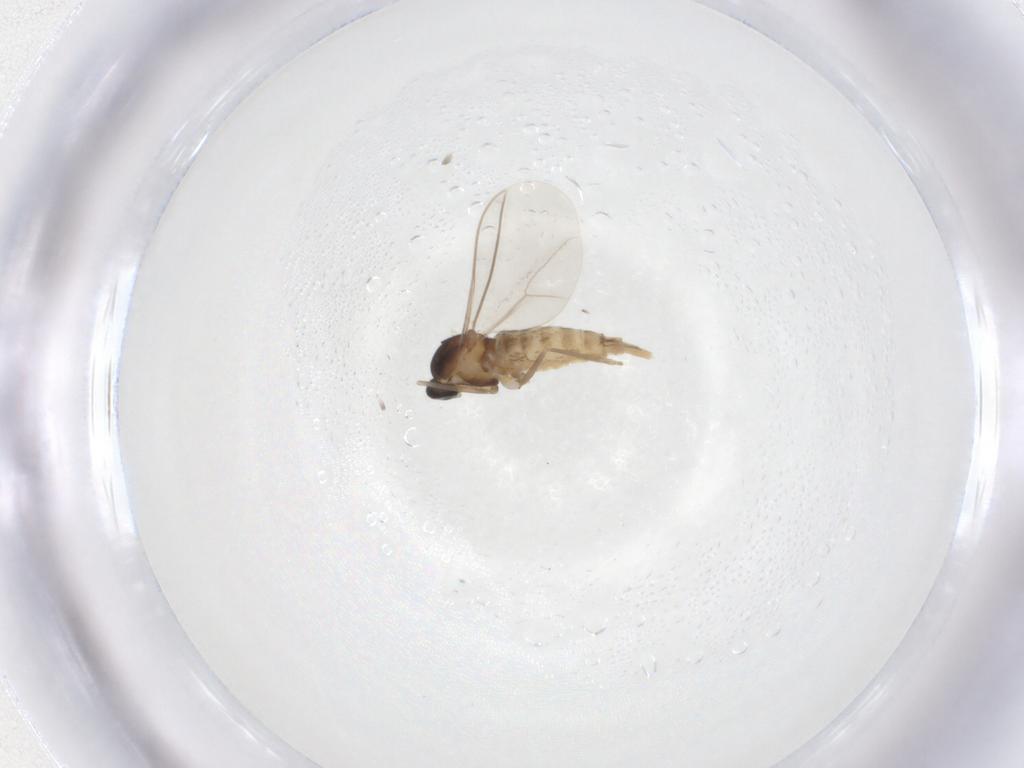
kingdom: Animalia
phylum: Arthropoda
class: Insecta
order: Diptera
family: Cecidomyiidae
